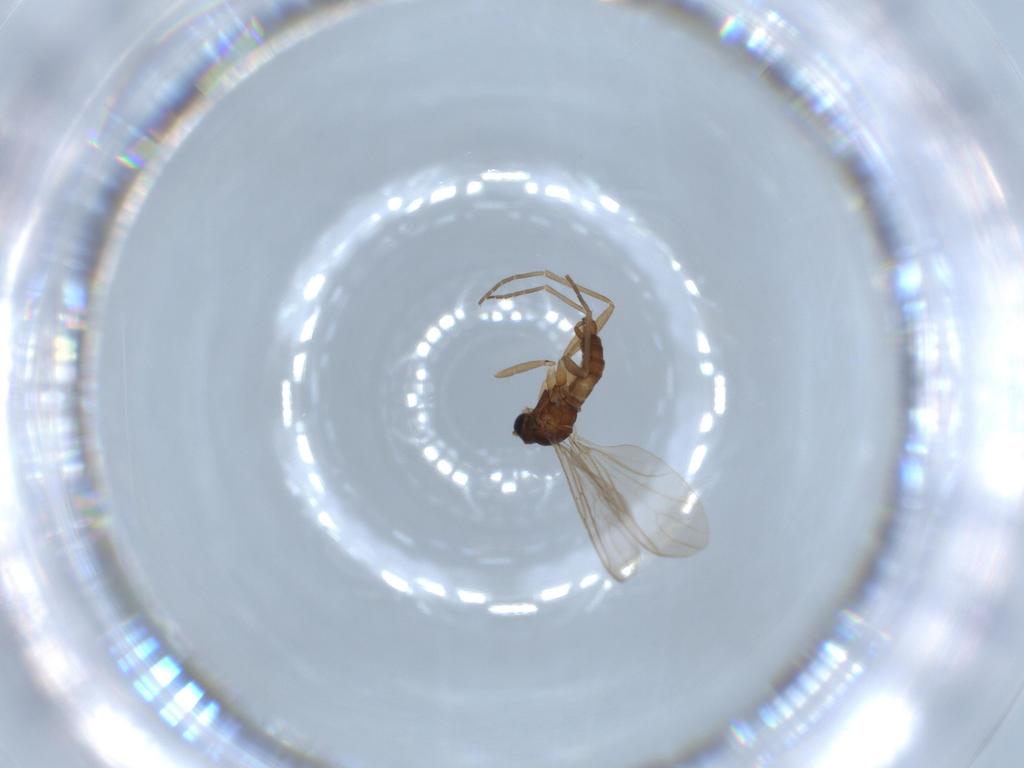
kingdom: Animalia
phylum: Arthropoda
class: Insecta
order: Diptera
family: Sciaridae
